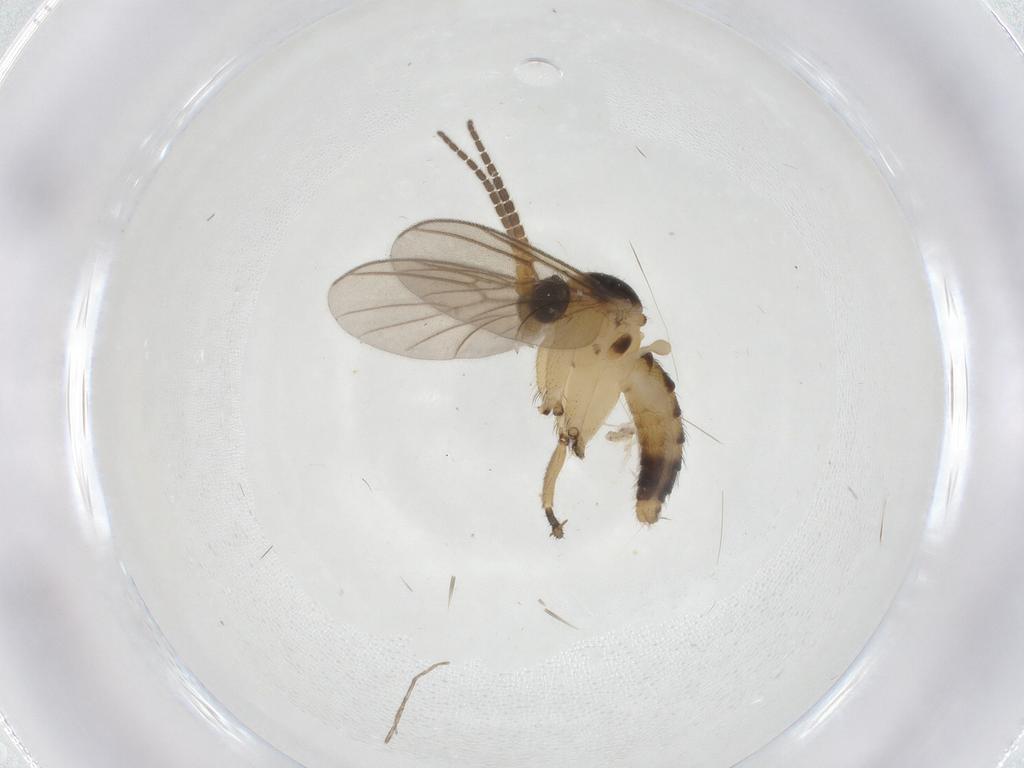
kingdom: Animalia
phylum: Arthropoda
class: Insecta
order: Diptera
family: Mycetophilidae
